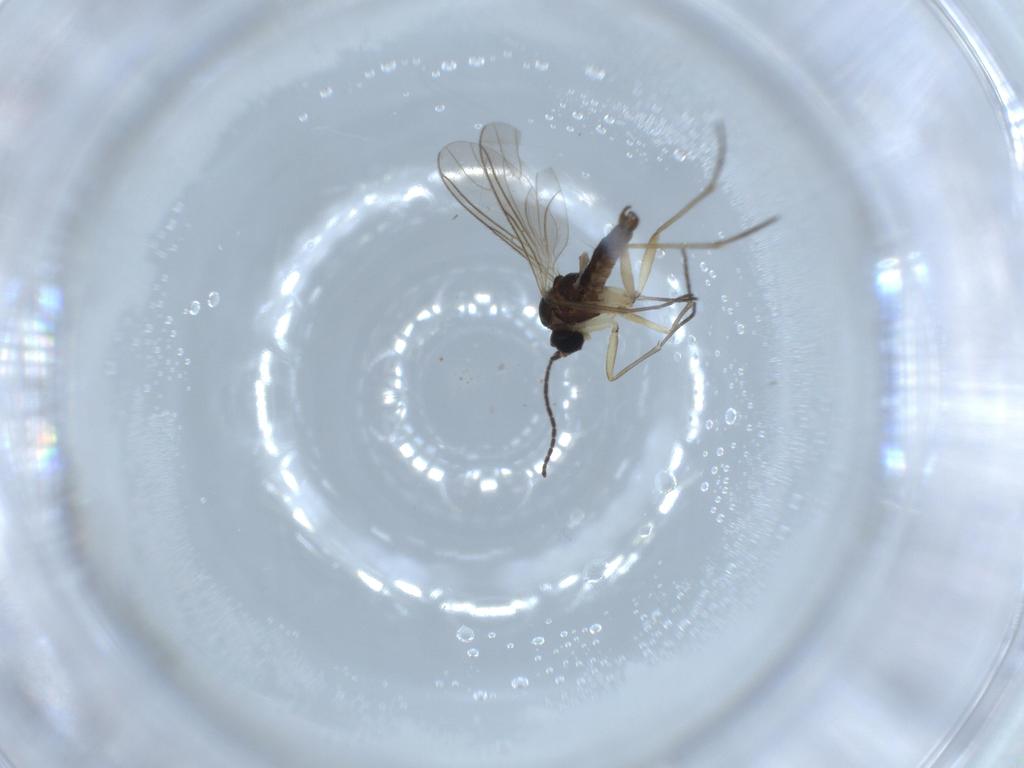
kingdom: Animalia
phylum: Arthropoda
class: Insecta
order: Diptera
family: Sciaridae
